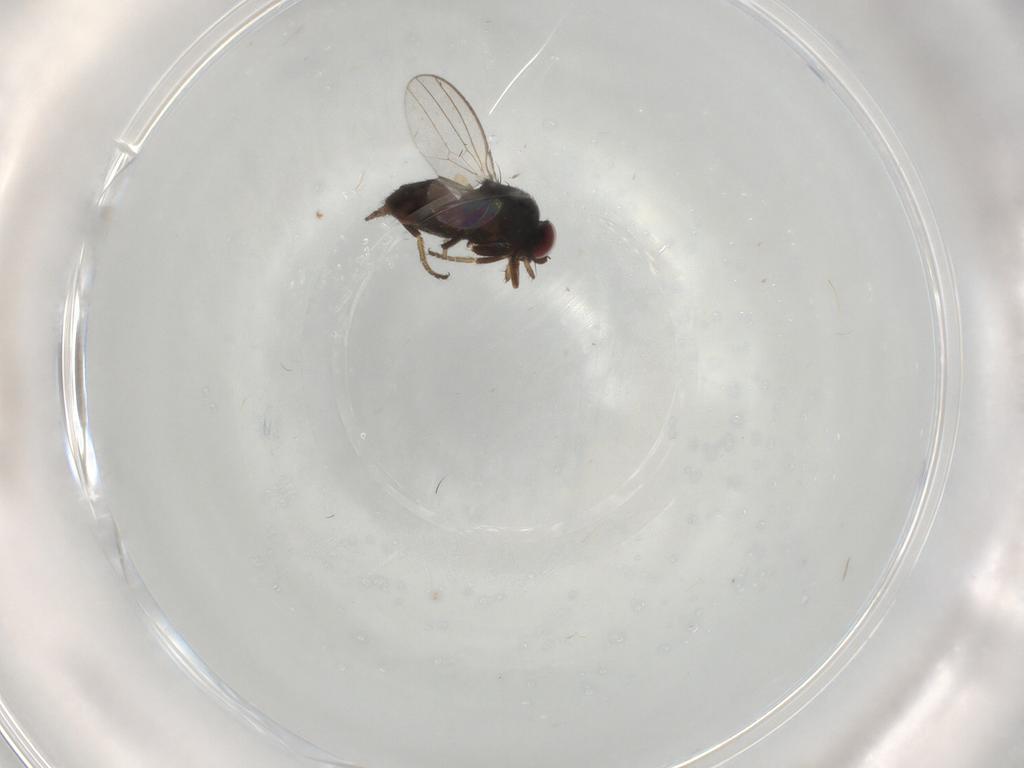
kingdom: Animalia
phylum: Arthropoda
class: Insecta
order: Diptera
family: Milichiidae
